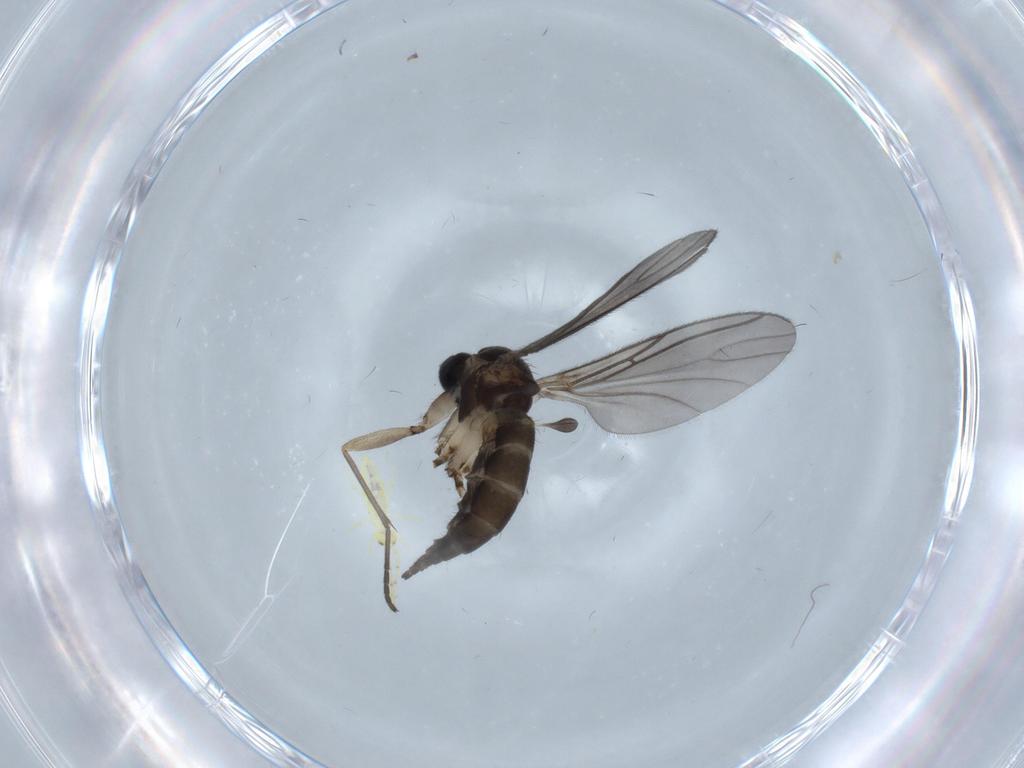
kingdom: Animalia
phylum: Arthropoda
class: Insecta
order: Diptera
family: Sciaridae
